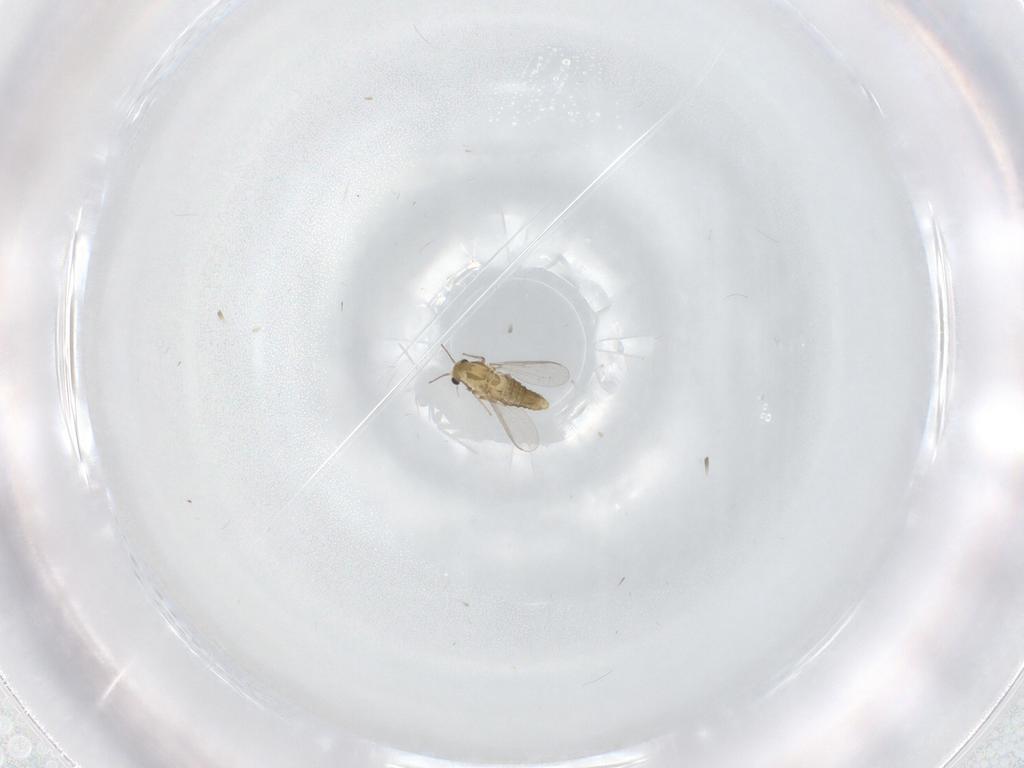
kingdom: Animalia
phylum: Arthropoda
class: Insecta
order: Diptera
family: Chironomidae
